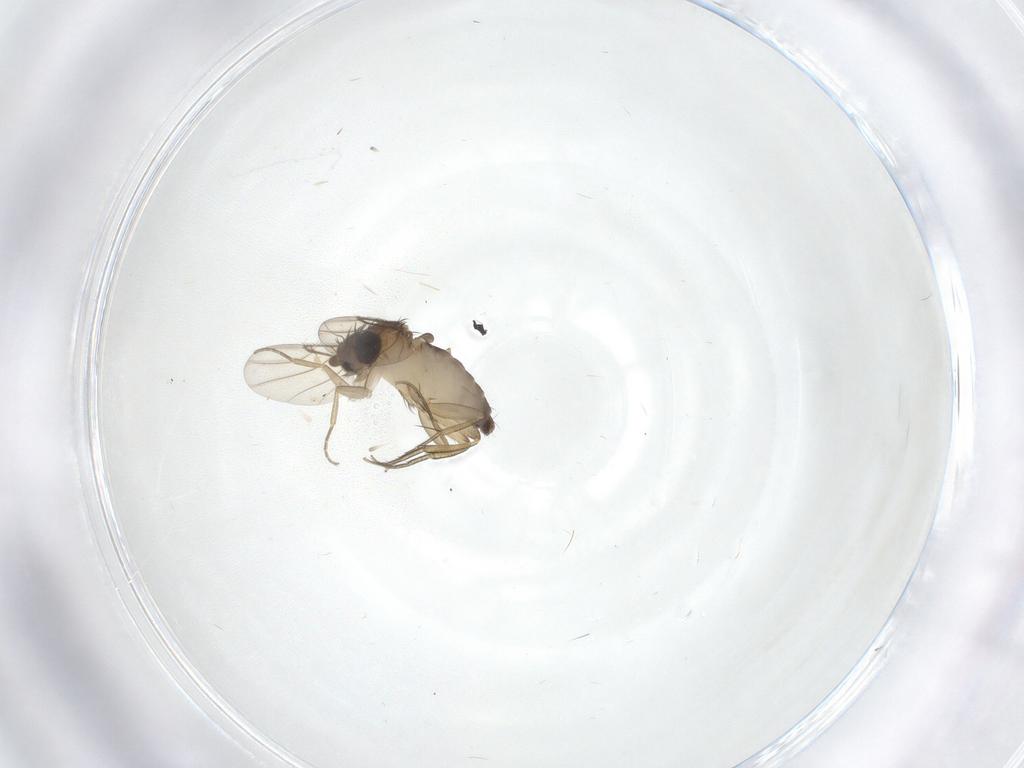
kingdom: Animalia
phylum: Arthropoda
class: Insecta
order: Diptera
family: Phoridae
